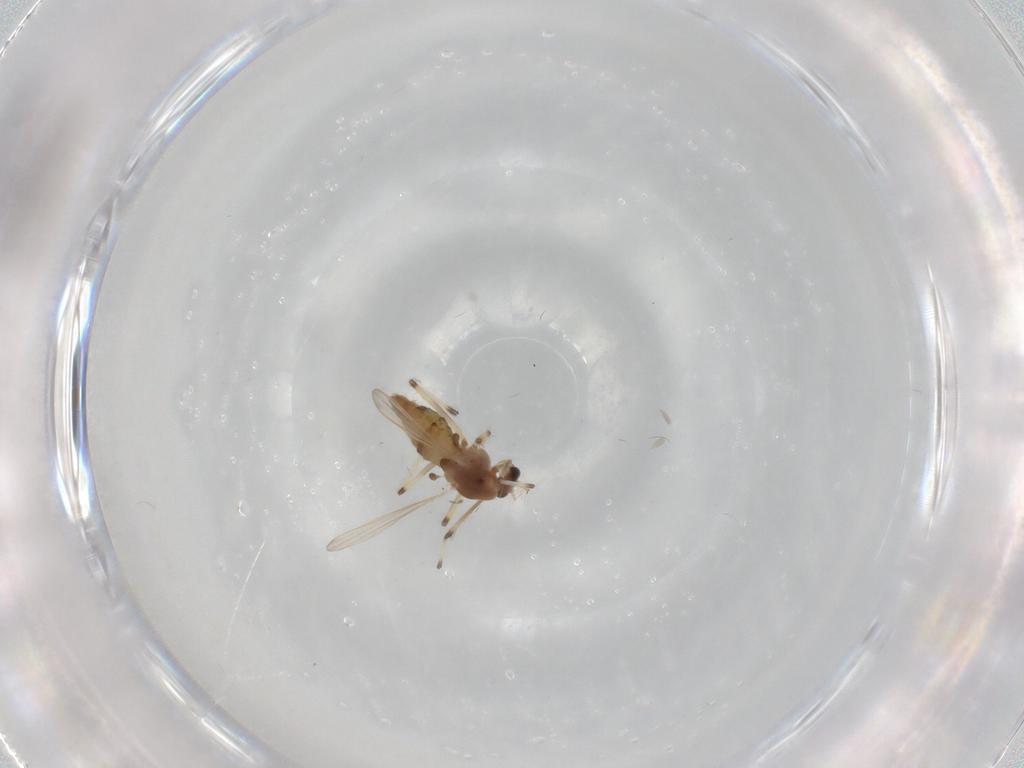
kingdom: Animalia
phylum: Arthropoda
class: Insecta
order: Diptera
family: Chironomidae
